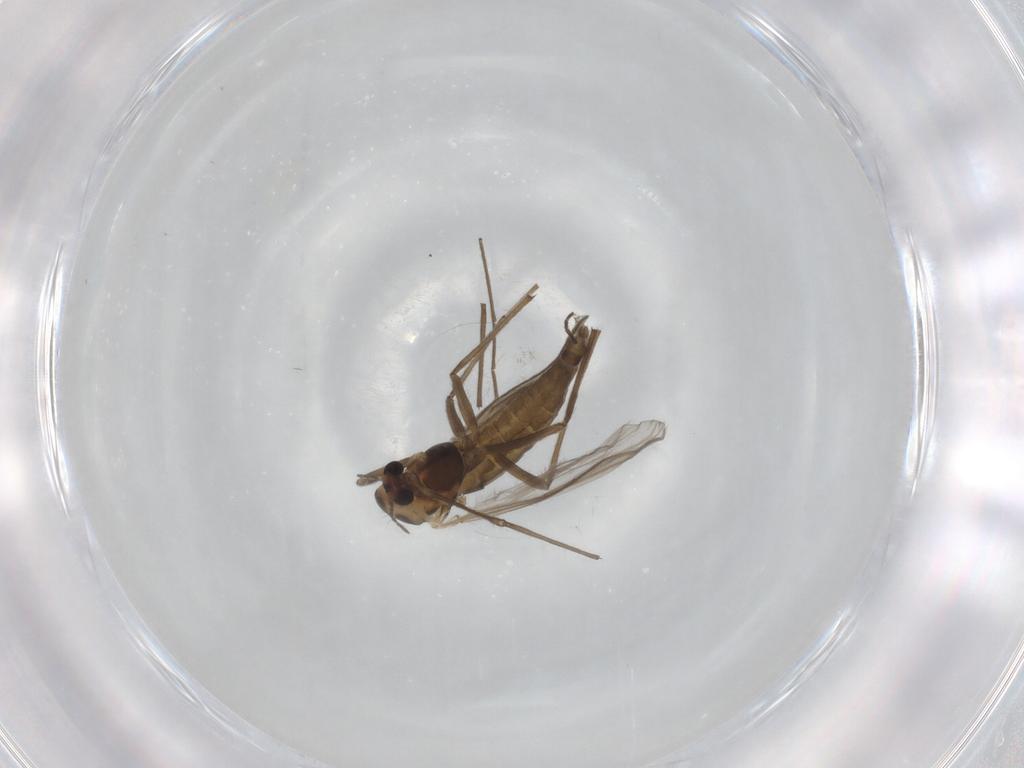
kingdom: Animalia
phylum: Arthropoda
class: Insecta
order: Diptera
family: Chironomidae
